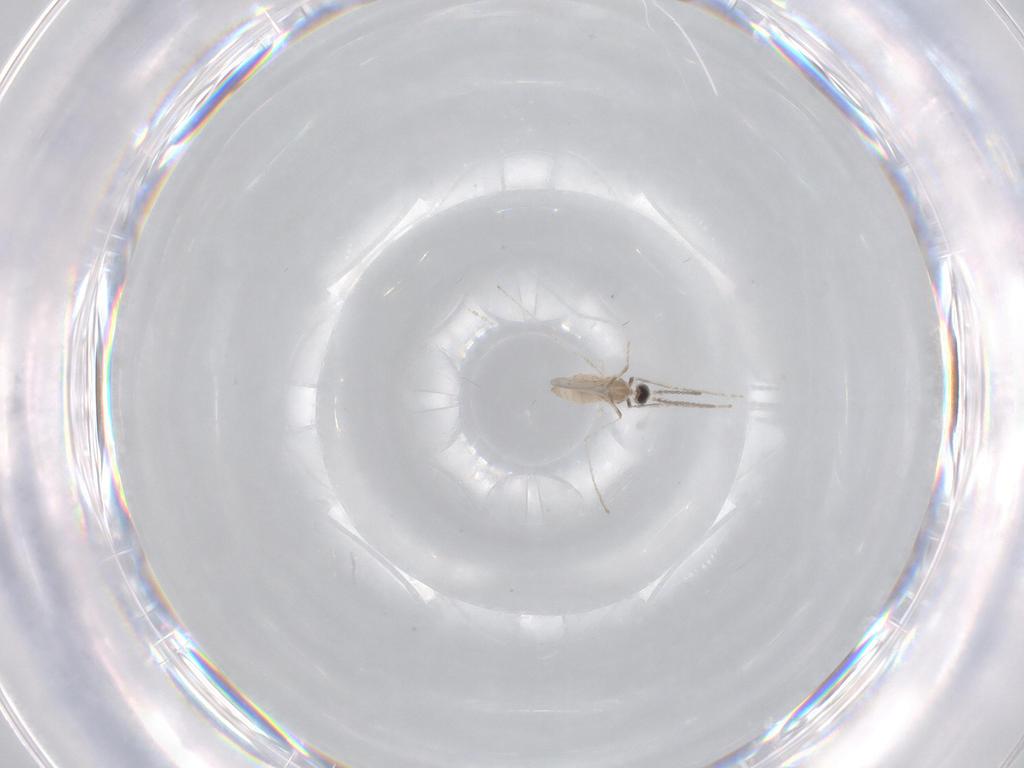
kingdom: Animalia
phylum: Arthropoda
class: Insecta
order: Diptera
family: Cecidomyiidae
